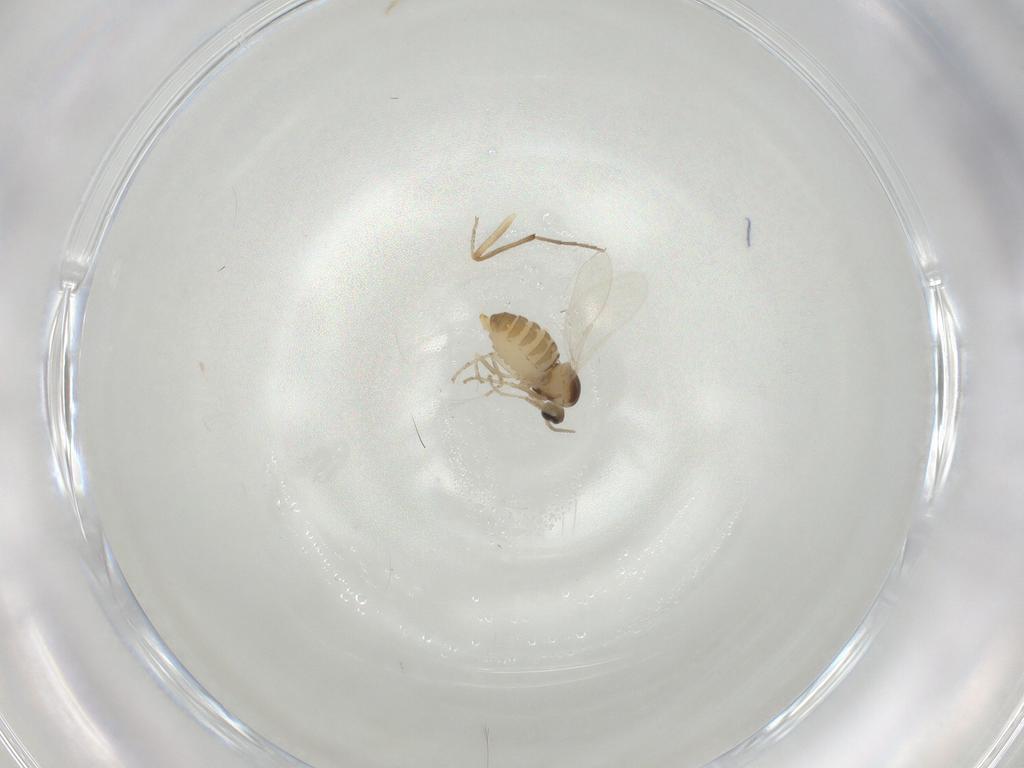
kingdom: Animalia
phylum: Arthropoda
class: Insecta
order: Diptera
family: Cecidomyiidae
